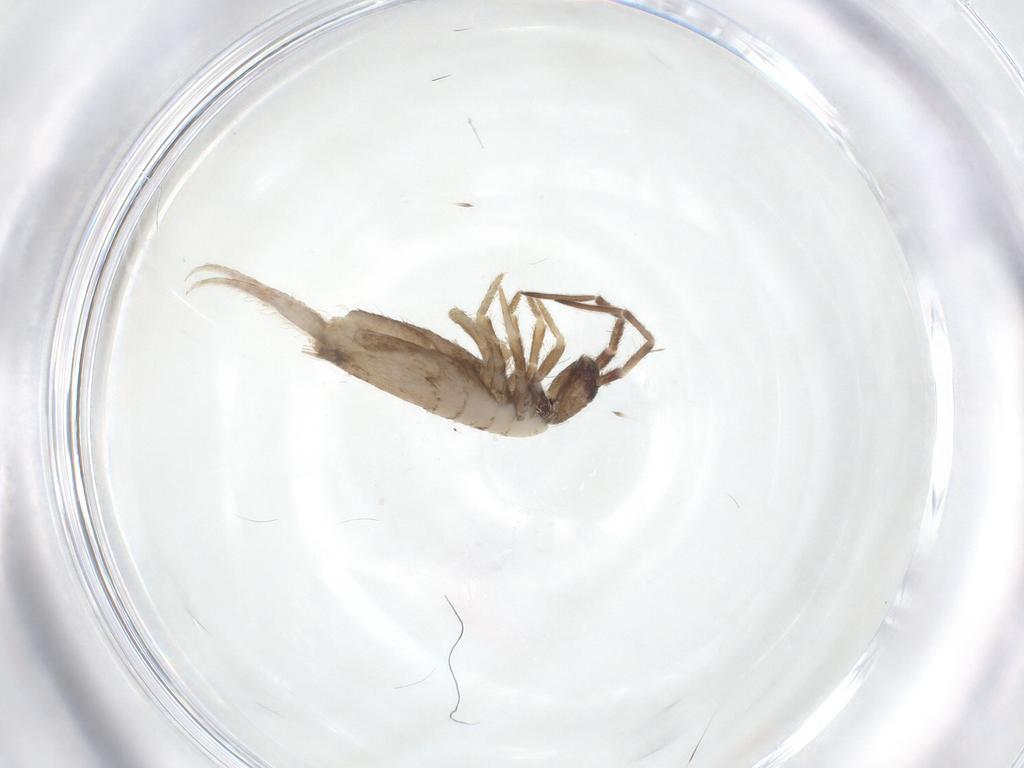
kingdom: Animalia
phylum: Arthropoda
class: Collembola
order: Entomobryomorpha
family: Entomobryidae
